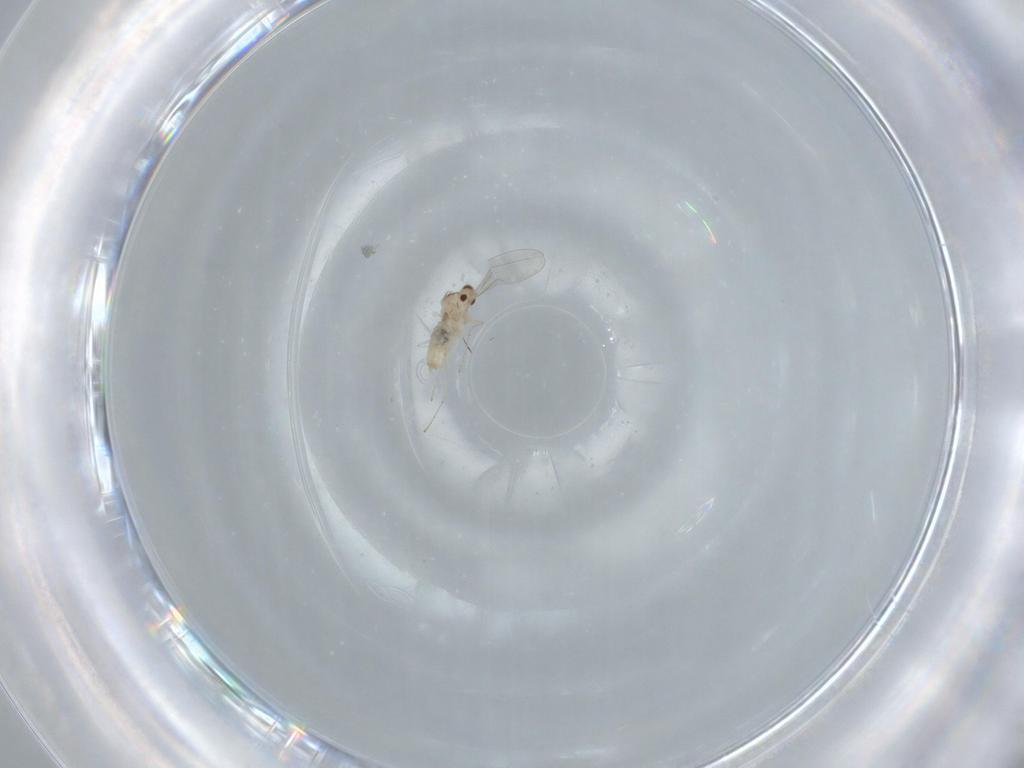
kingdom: Animalia
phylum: Arthropoda
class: Insecta
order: Diptera
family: Cecidomyiidae
